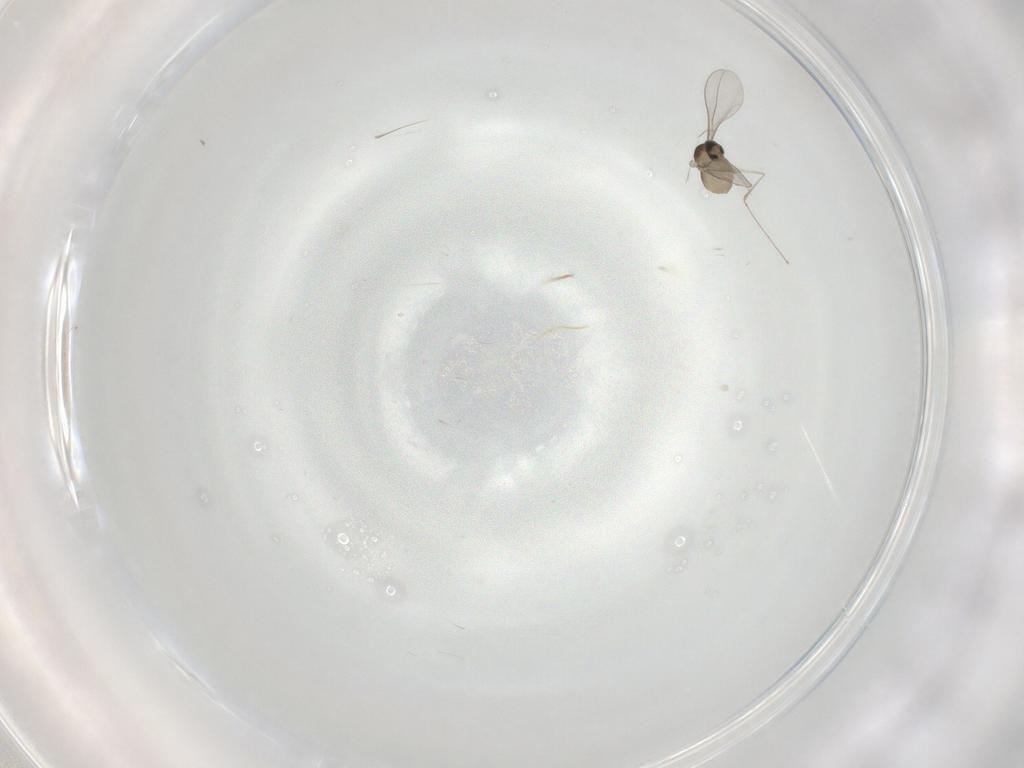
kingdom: Animalia
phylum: Arthropoda
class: Insecta
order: Diptera
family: Cecidomyiidae
